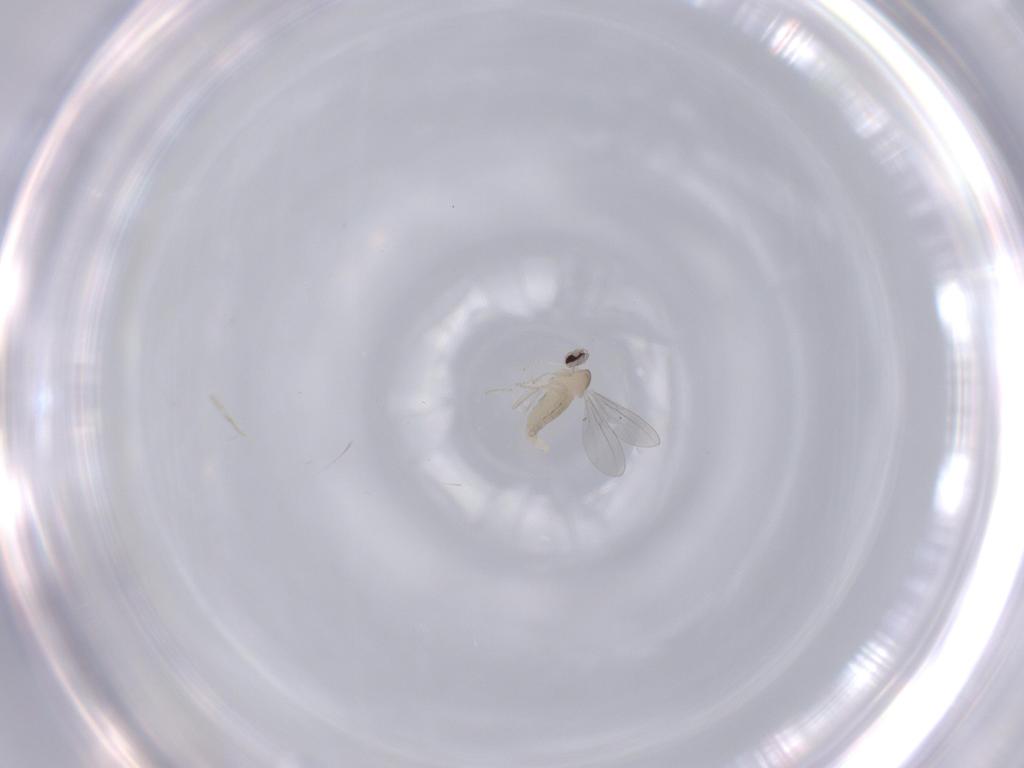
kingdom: Animalia
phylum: Arthropoda
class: Insecta
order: Diptera
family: Cecidomyiidae
